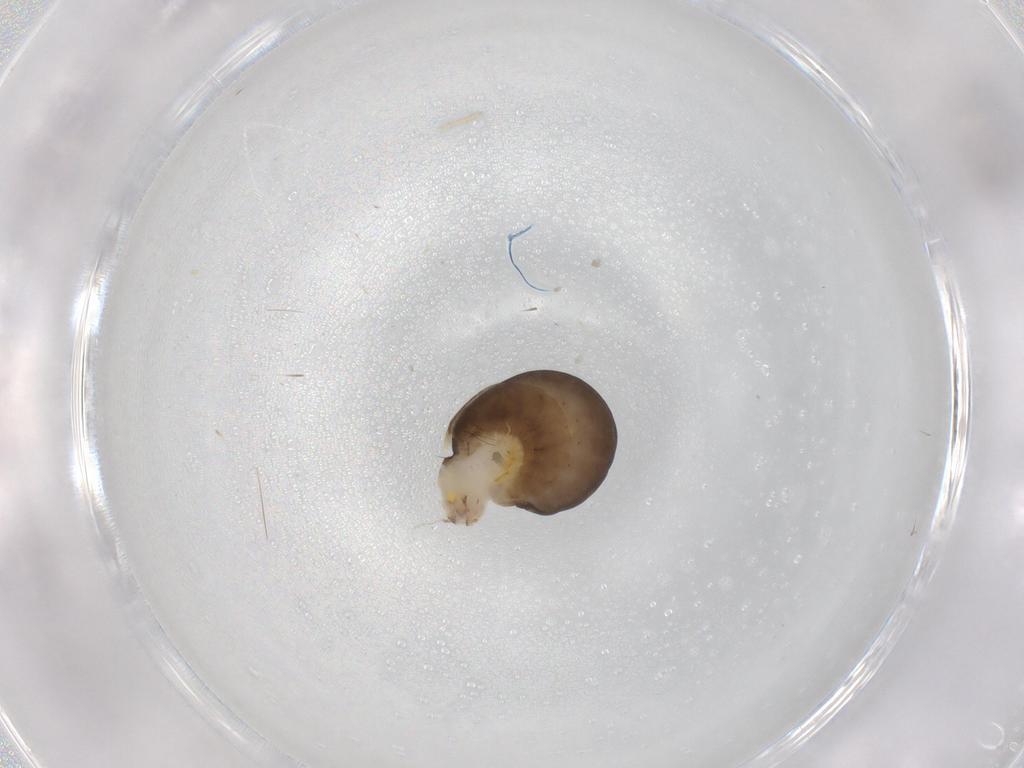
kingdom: Animalia
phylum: Arthropoda
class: Insecta
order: Diptera
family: Cecidomyiidae
